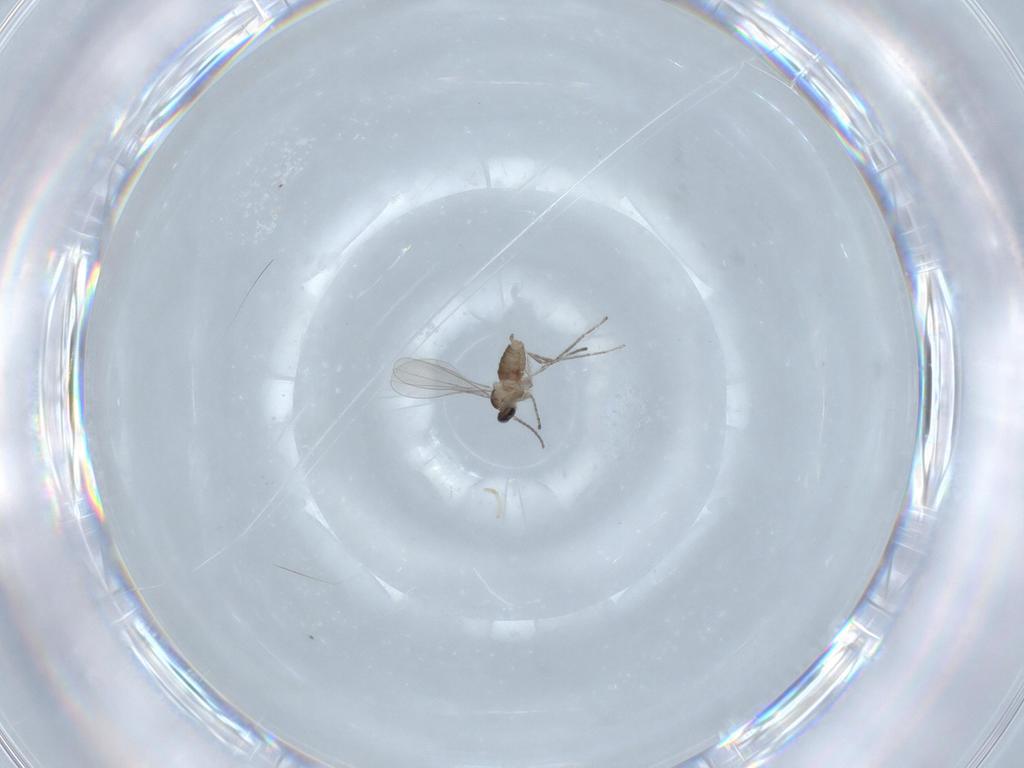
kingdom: Animalia
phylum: Arthropoda
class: Insecta
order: Diptera
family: Cecidomyiidae
